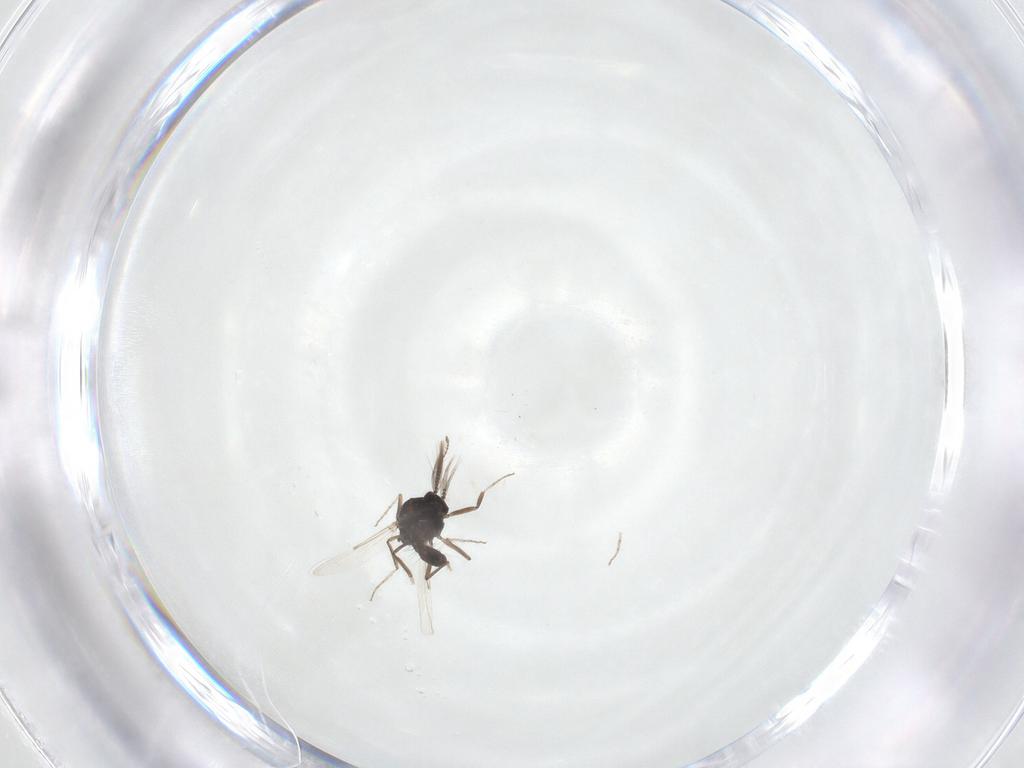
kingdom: Animalia
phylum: Arthropoda
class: Insecta
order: Diptera
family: Ceratopogonidae
